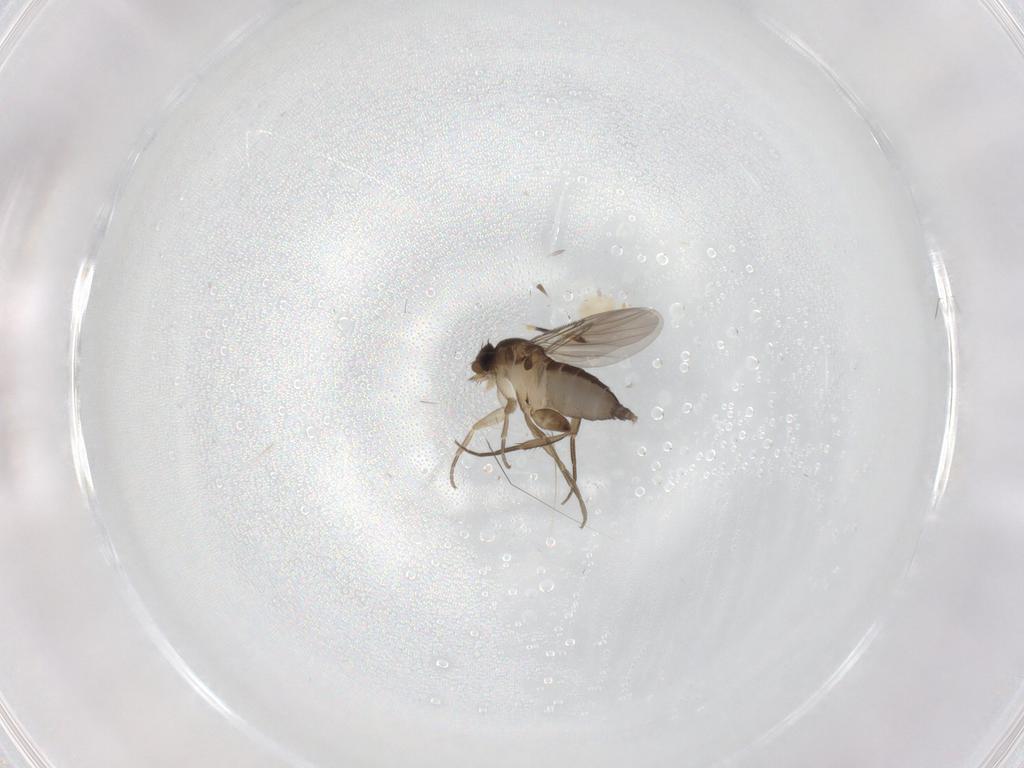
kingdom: Animalia
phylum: Arthropoda
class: Insecta
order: Diptera
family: Phoridae
